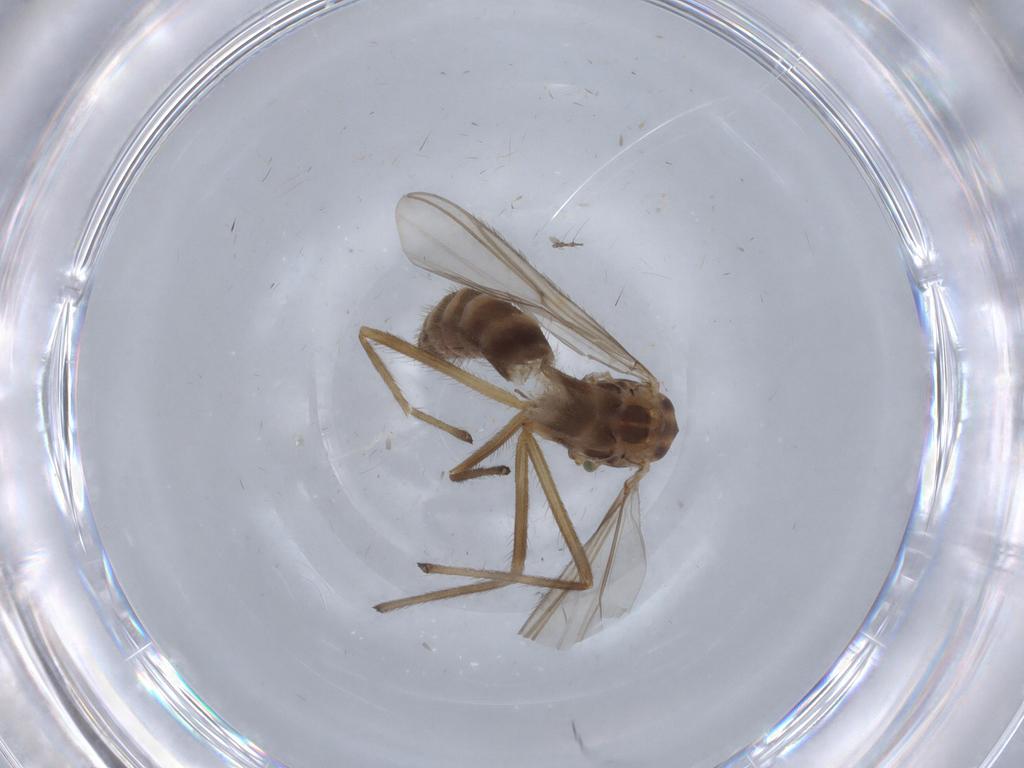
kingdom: Animalia
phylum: Arthropoda
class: Insecta
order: Diptera
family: Chironomidae
